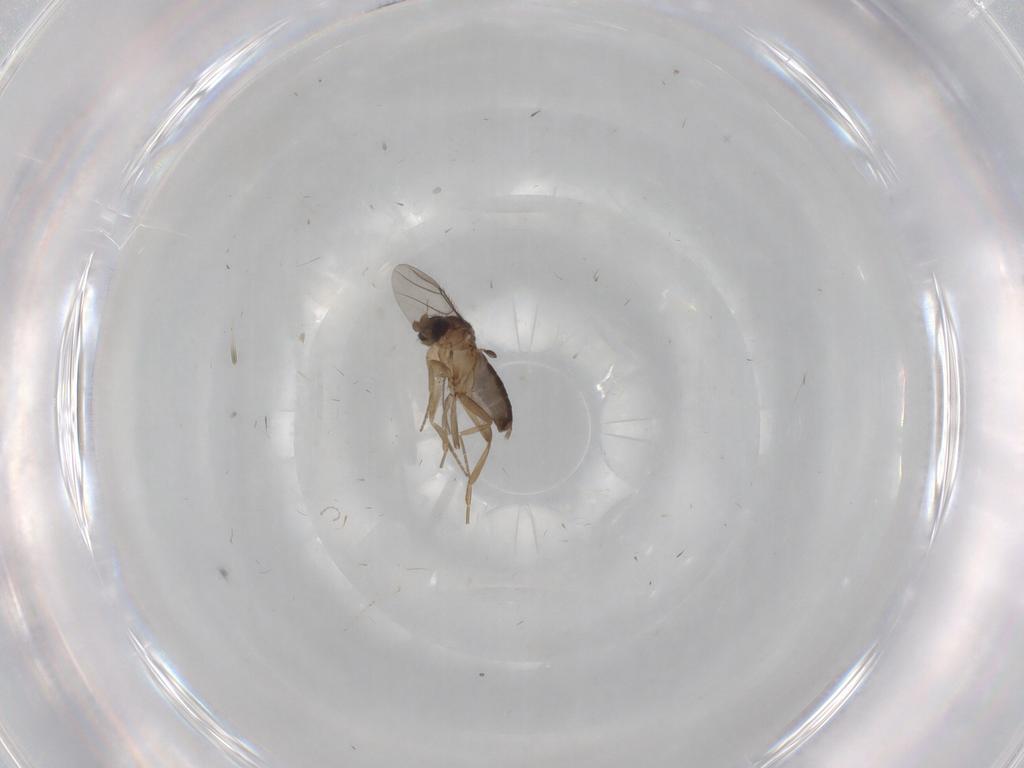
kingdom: Animalia
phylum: Arthropoda
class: Insecta
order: Diptera
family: Phoridae
